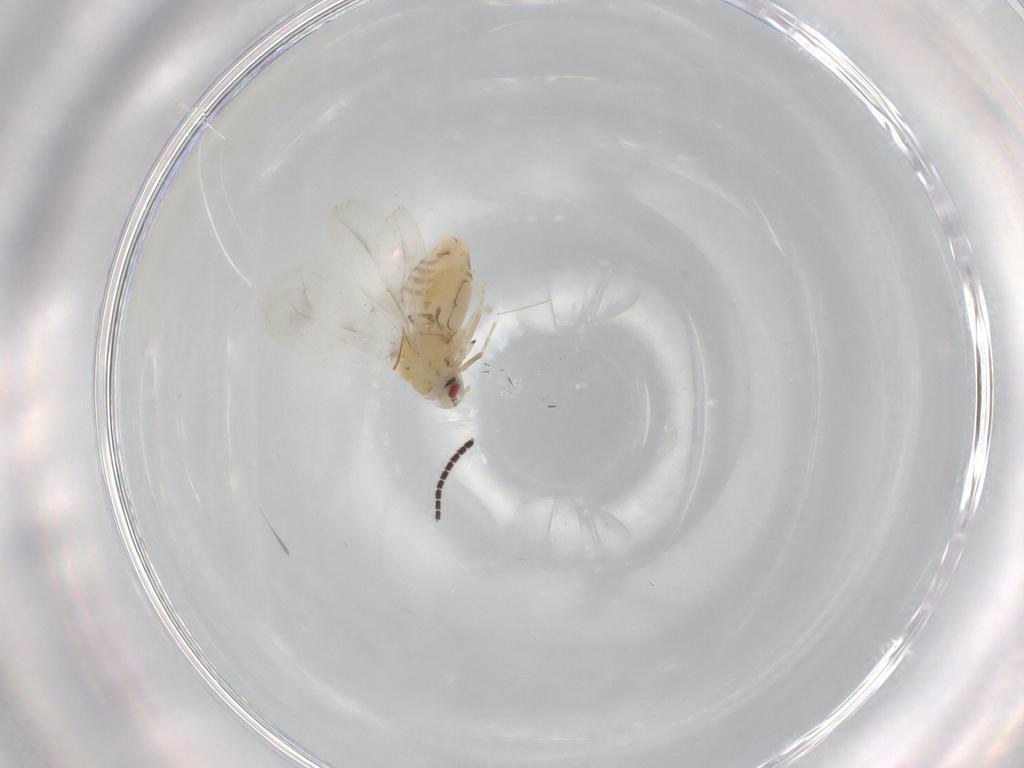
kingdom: Animalia
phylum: Arthropoda
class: Insecta
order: Hemiptera
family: Aleyrodidae
